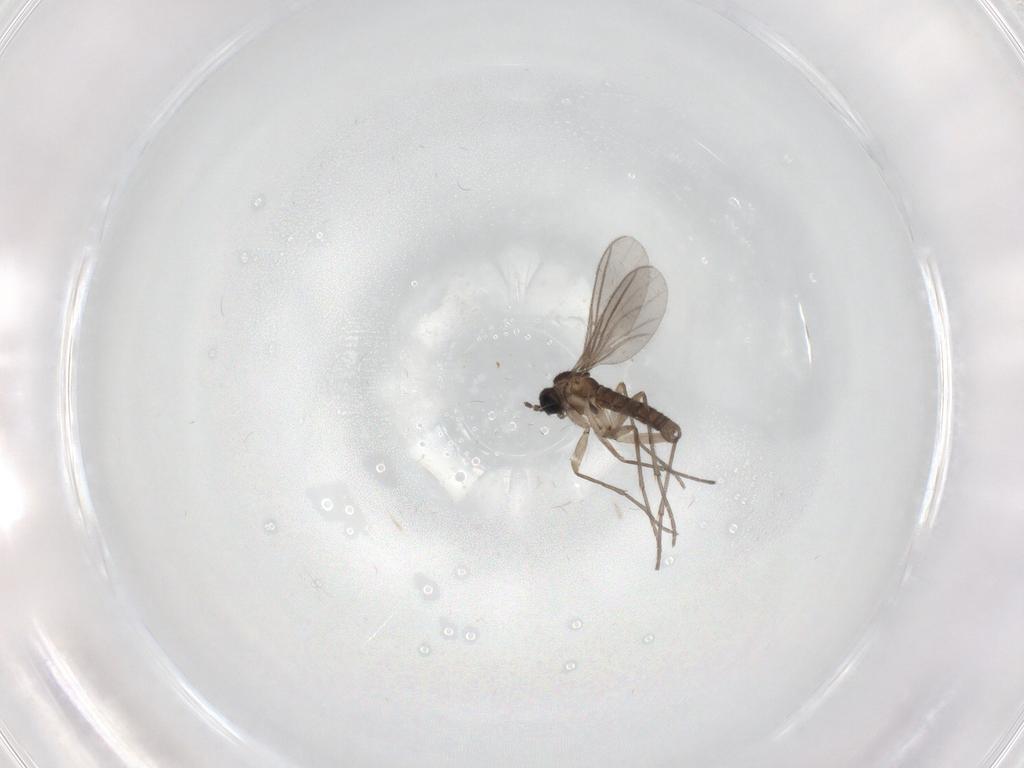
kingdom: Animalia
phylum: Arthropoda
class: Insecta
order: Diptera
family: Sciaridae
